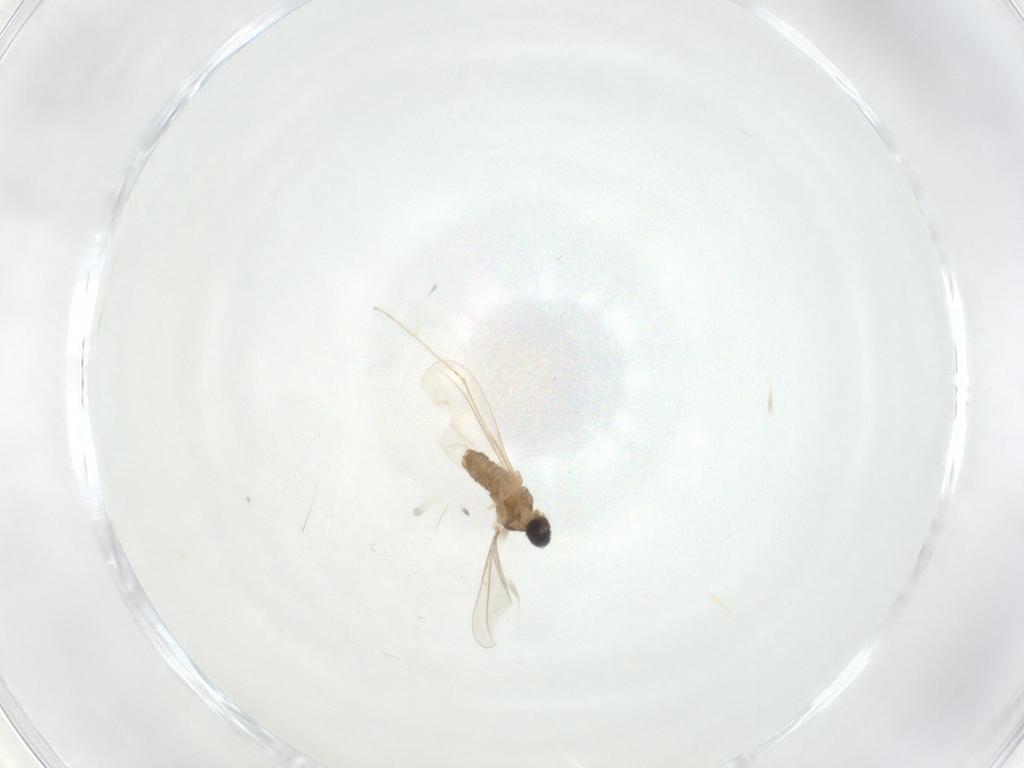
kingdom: Animalia
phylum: Arthropoda
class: Insecta
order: Diptera
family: Cecidomyiidae
